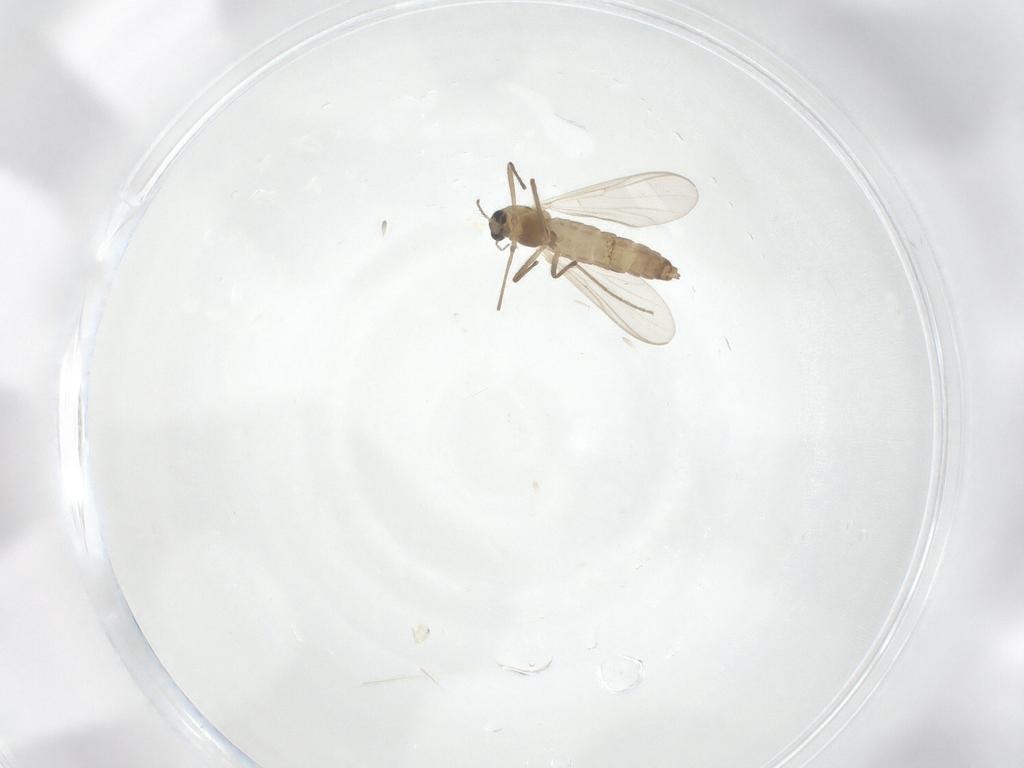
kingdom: Animalia
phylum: Arthropoda
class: Insecta
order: Diptera
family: Chironomidae
